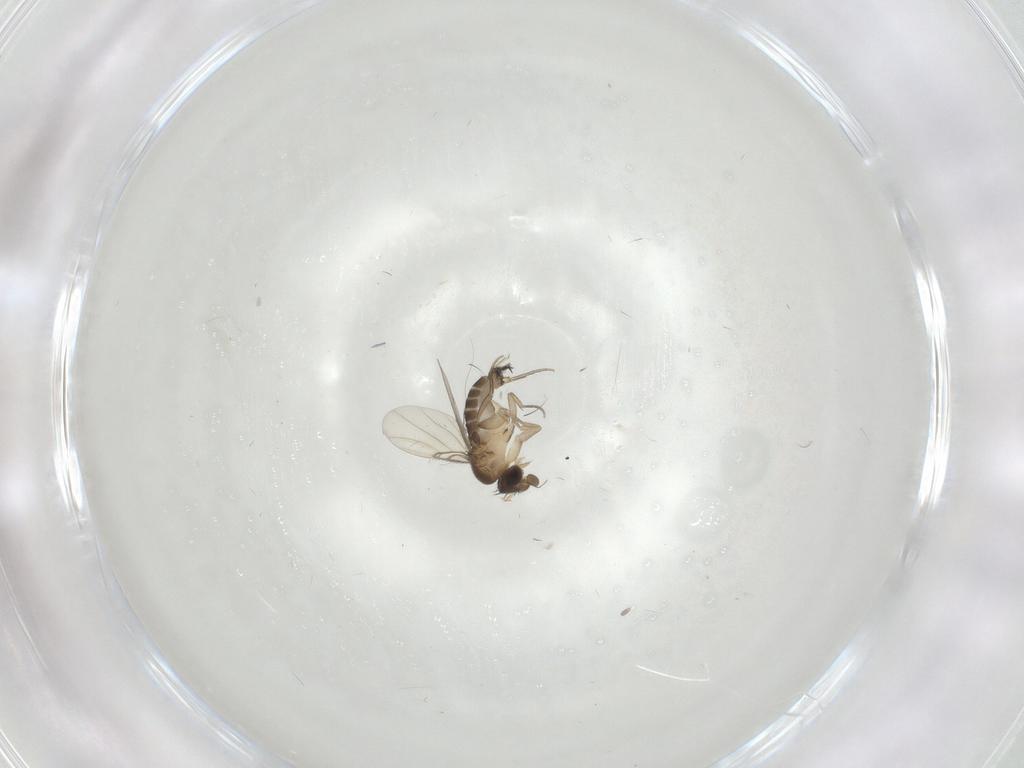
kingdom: Animalia
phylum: Arthropoda
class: Insecta
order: Diptera
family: Phoridae
